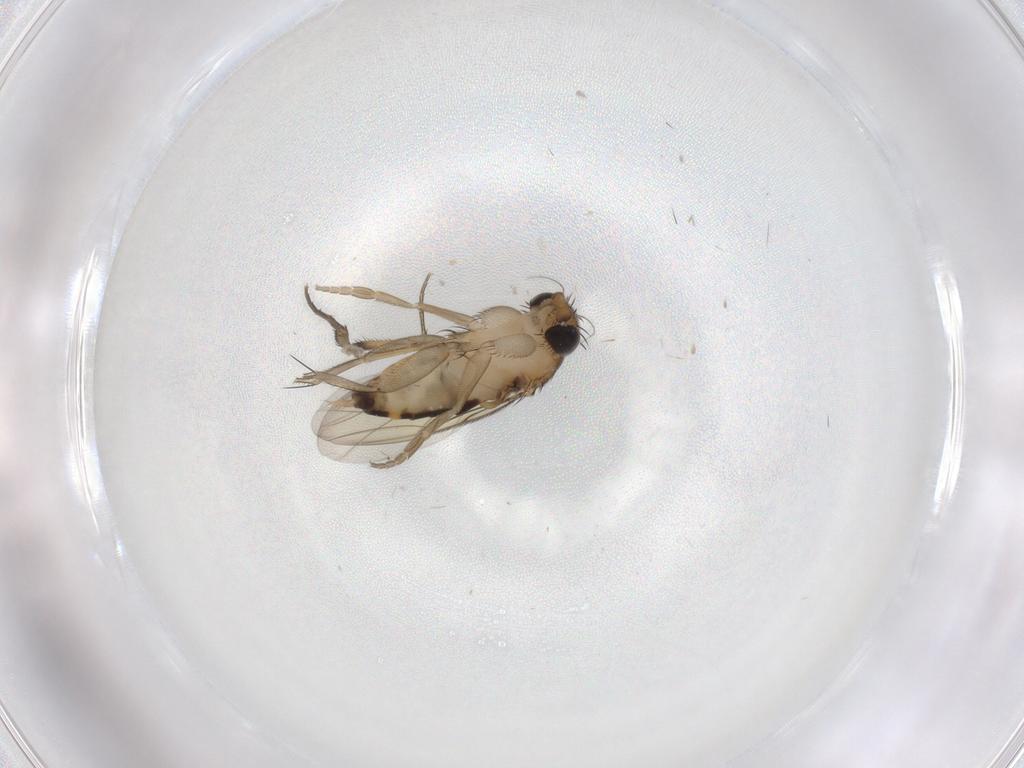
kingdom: Animalia
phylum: Arthropoda
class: Insecta
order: Diptera
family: Phoridae
